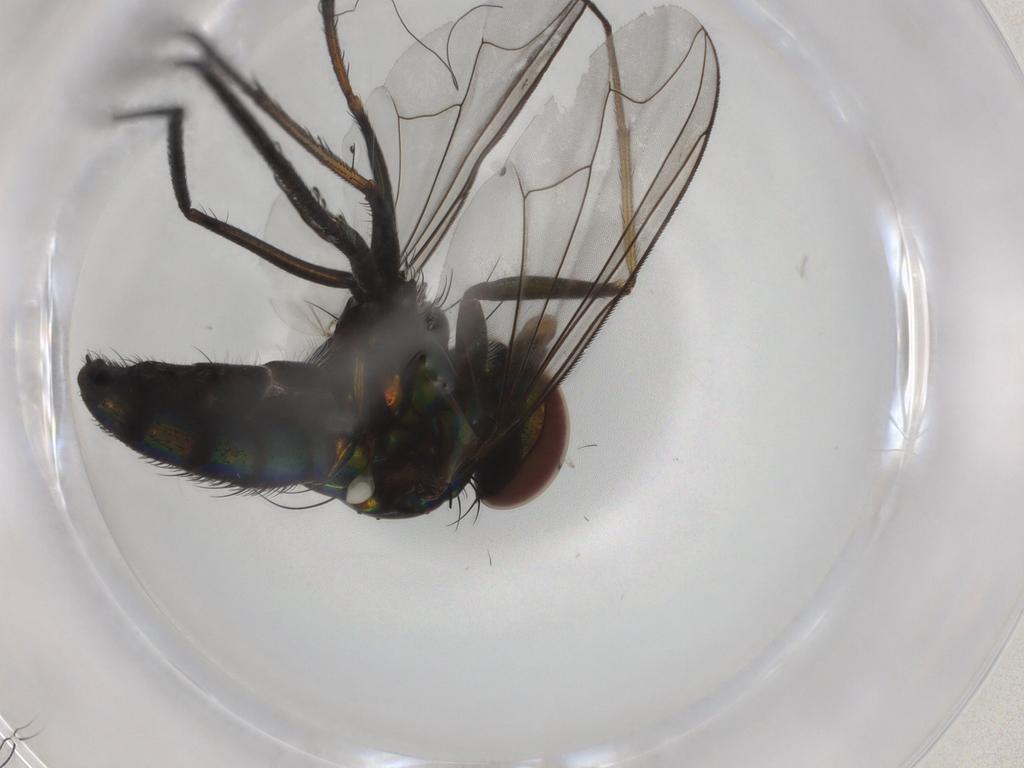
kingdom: Animalia
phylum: Arthropoda
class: Insecta
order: Diptera
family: Dolichopodidae
